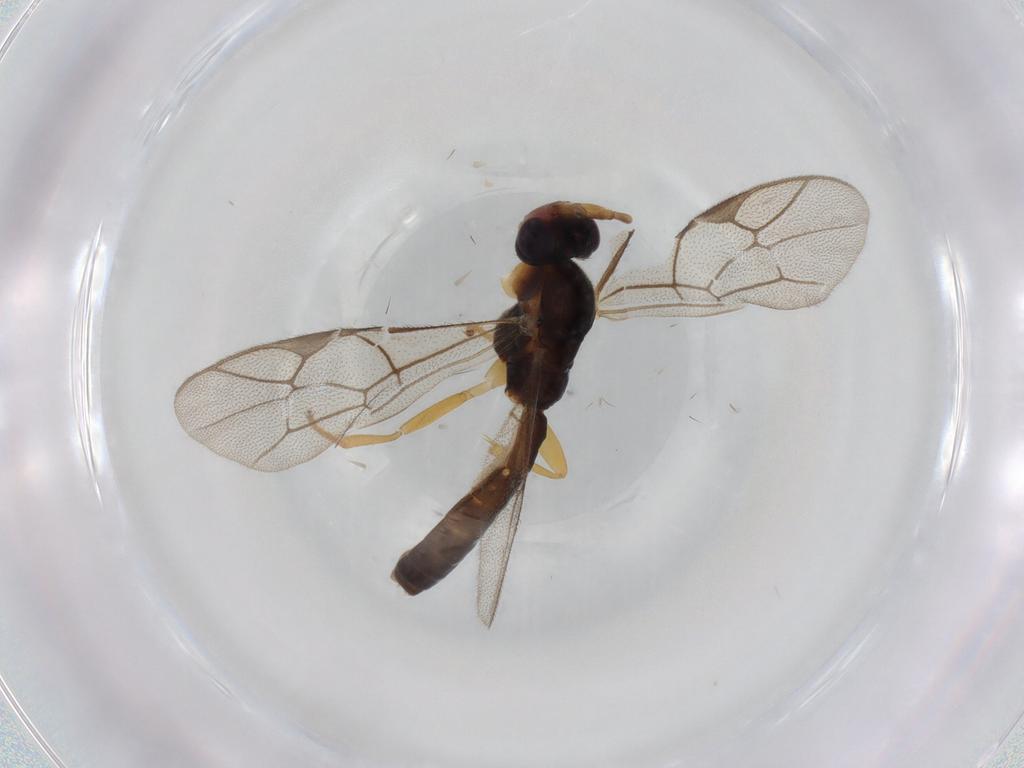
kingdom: Animalia
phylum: Arthropoda
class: Insecta
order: Hymenoptera
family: Ichneumonidae
